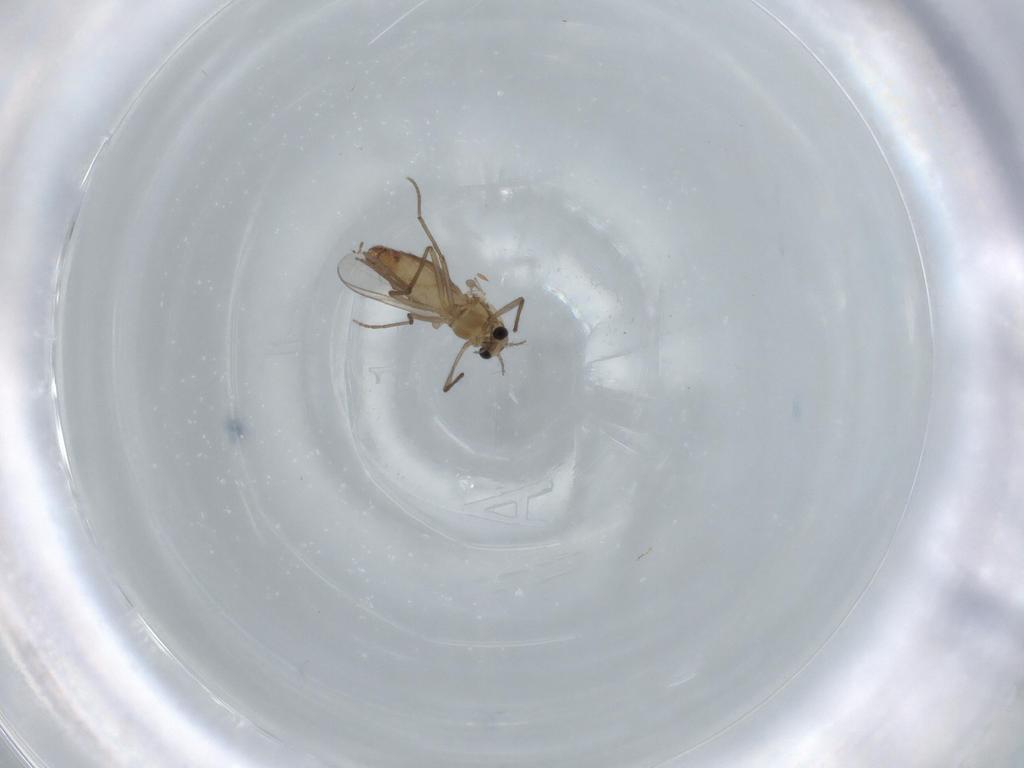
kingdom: Animalia
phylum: Arthropoda
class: Insecta
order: Diptera
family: Chironomidae
